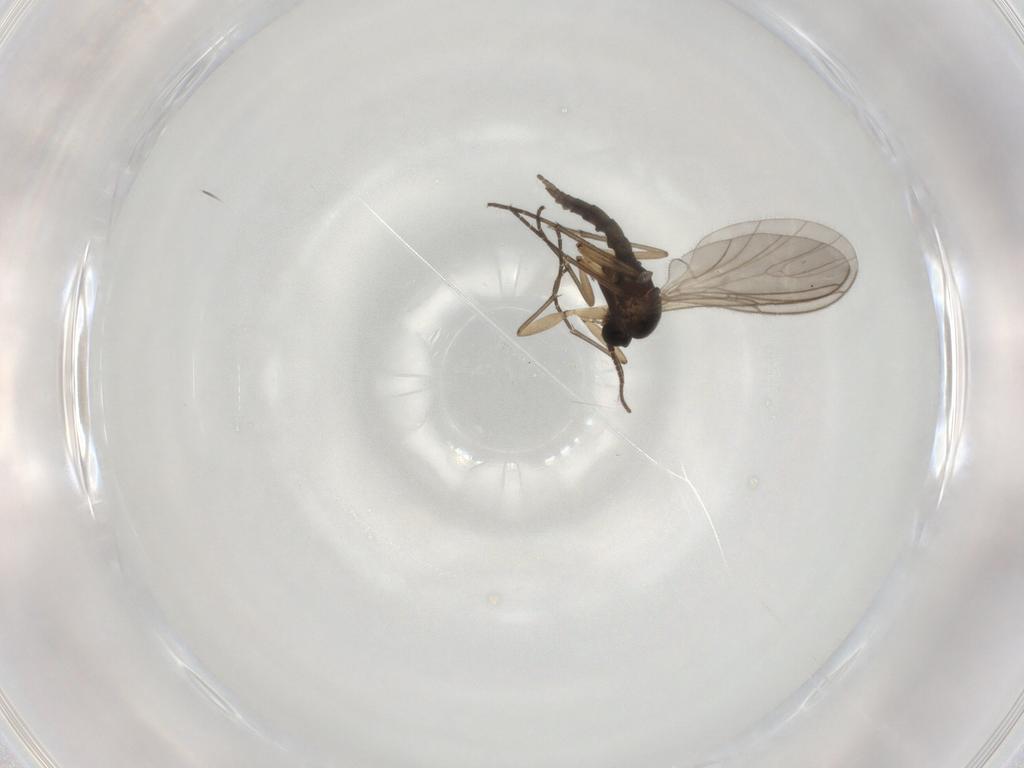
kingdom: Animalia
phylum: Arthropoda
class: Insecta
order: Diptera
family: Sciaridae
